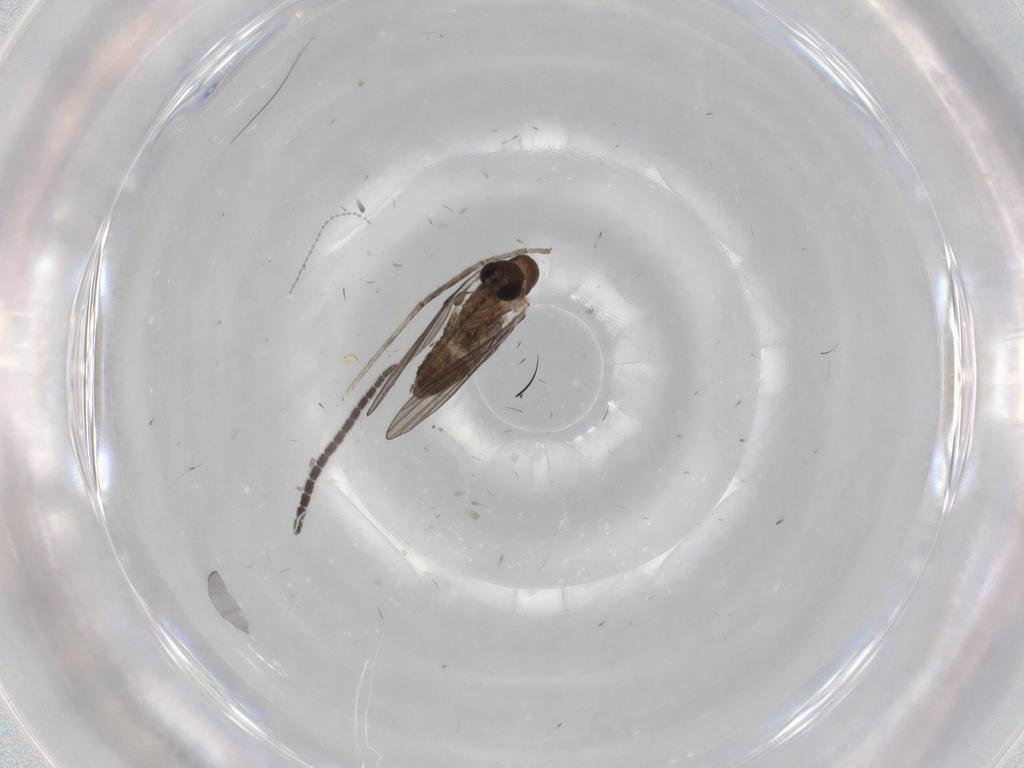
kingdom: Animalia
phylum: Arthropoda
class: Insecta
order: Diptera
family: Sciaridae
